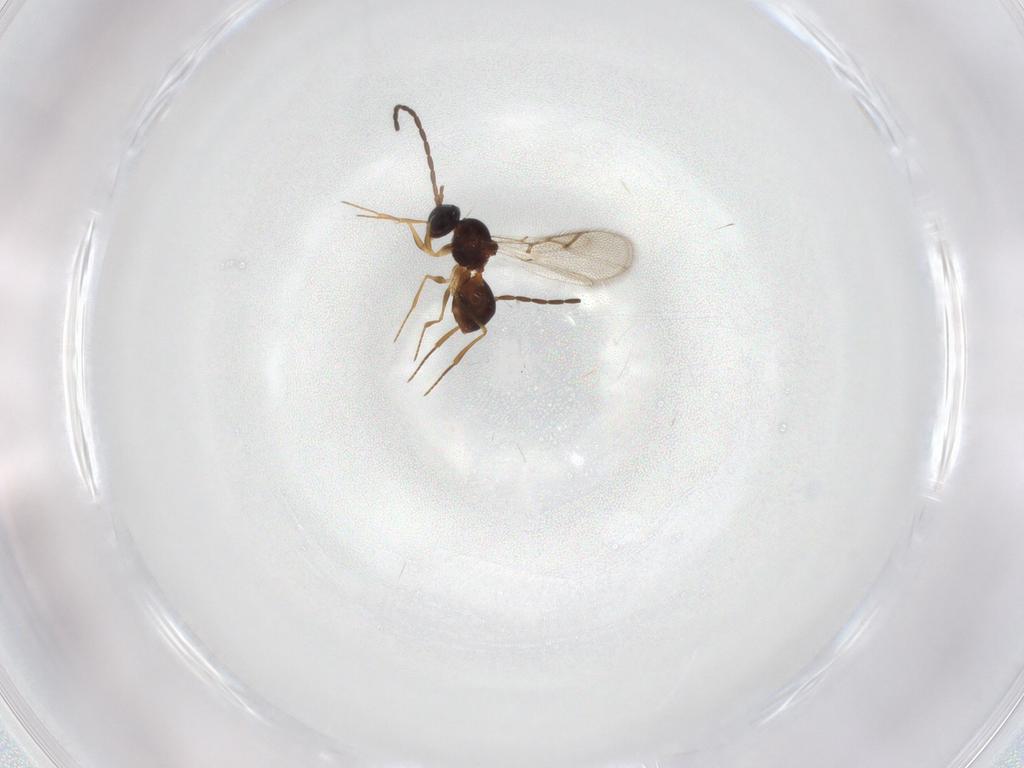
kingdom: Animalia
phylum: Arthropoda
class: Insecta
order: Hymenoptera
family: Figitidae
